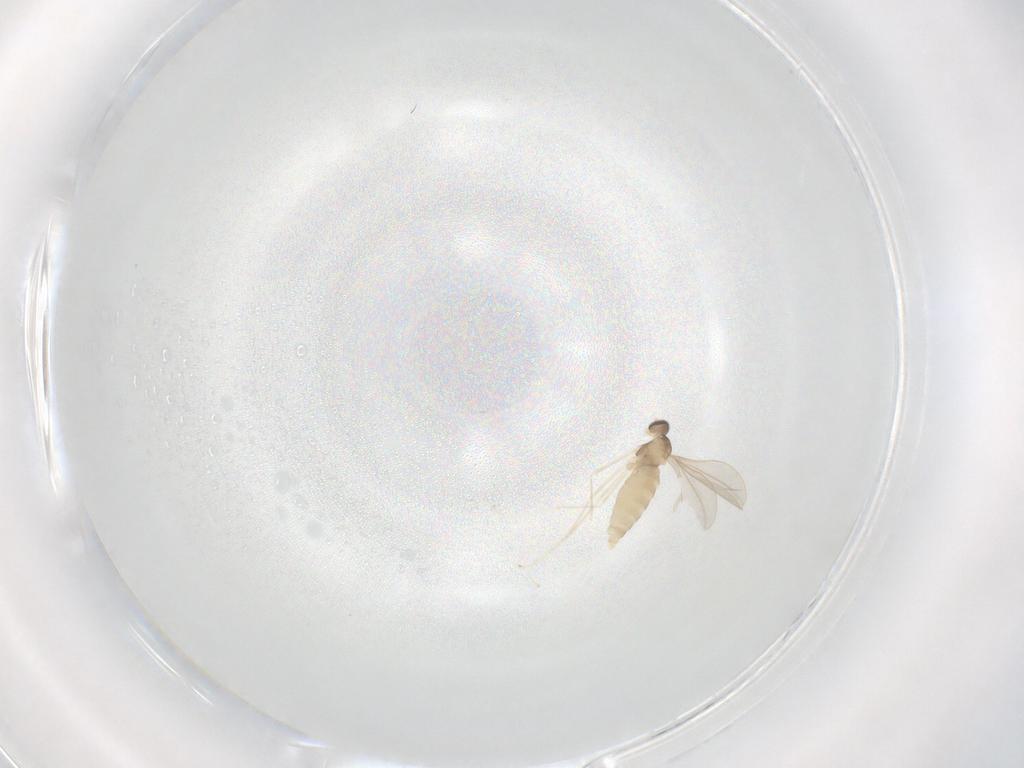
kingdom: Animalia
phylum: Arthropoda
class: Insecta
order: Diptera
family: Cecidomyiidae
